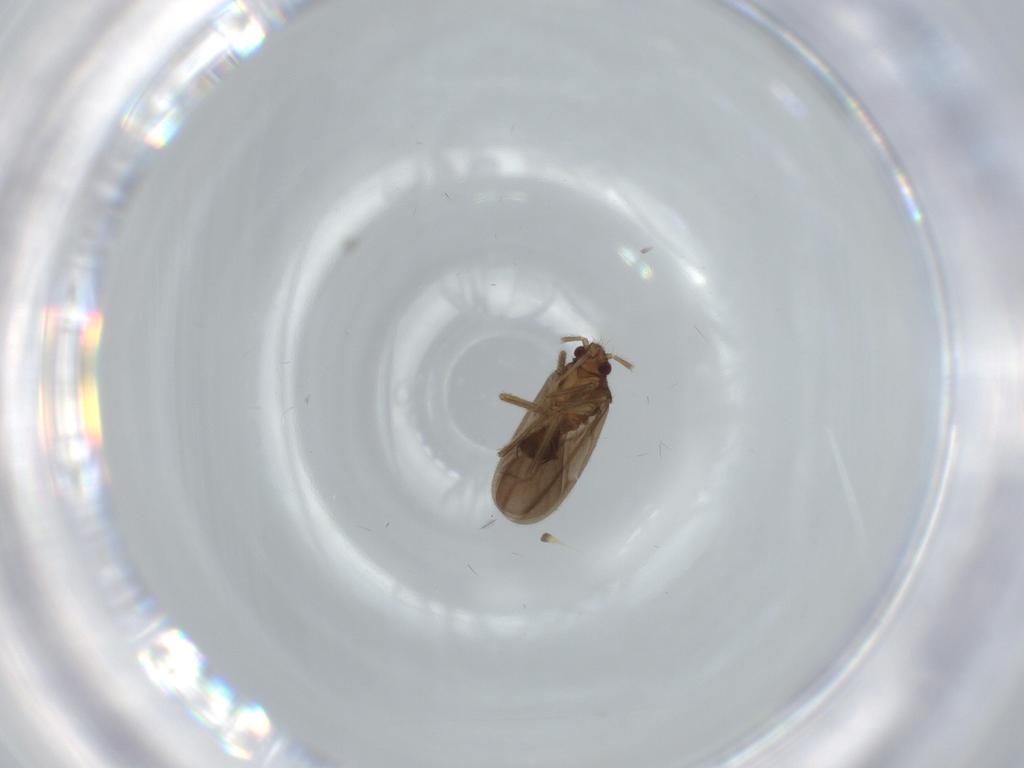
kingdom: Animalia
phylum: Arthropoda
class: Insecta
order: Hemiptera
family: Ceratocombidae
